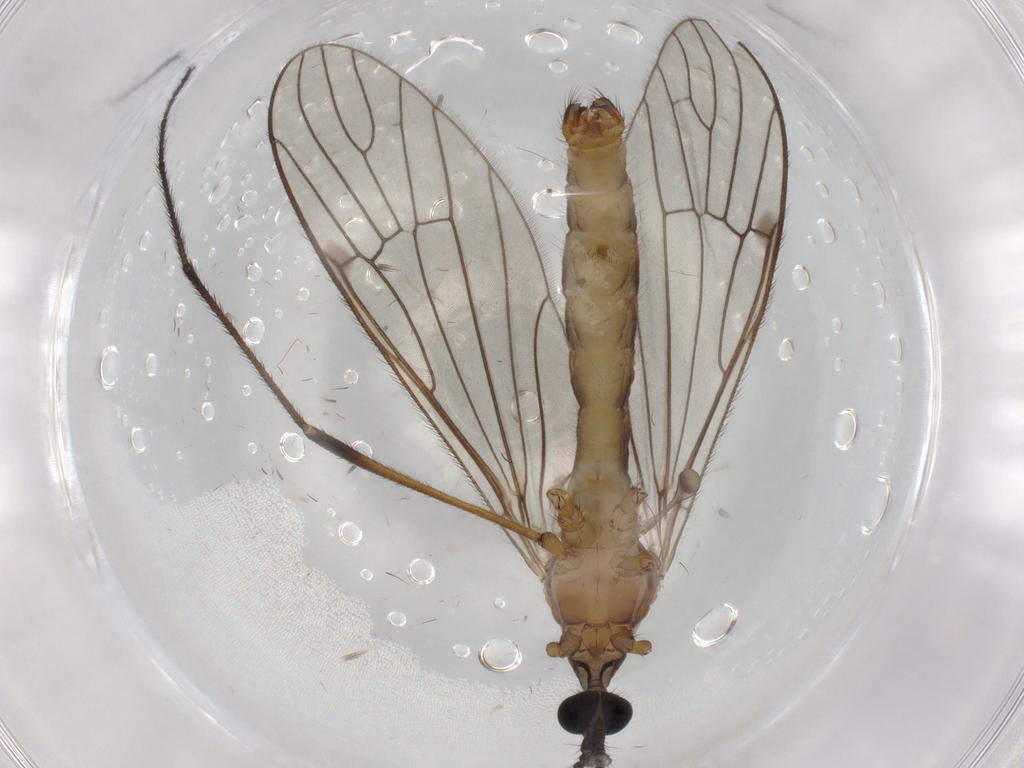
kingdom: Animalia
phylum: Arthropoda
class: Insecta
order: Diptera
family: Limoniidae
